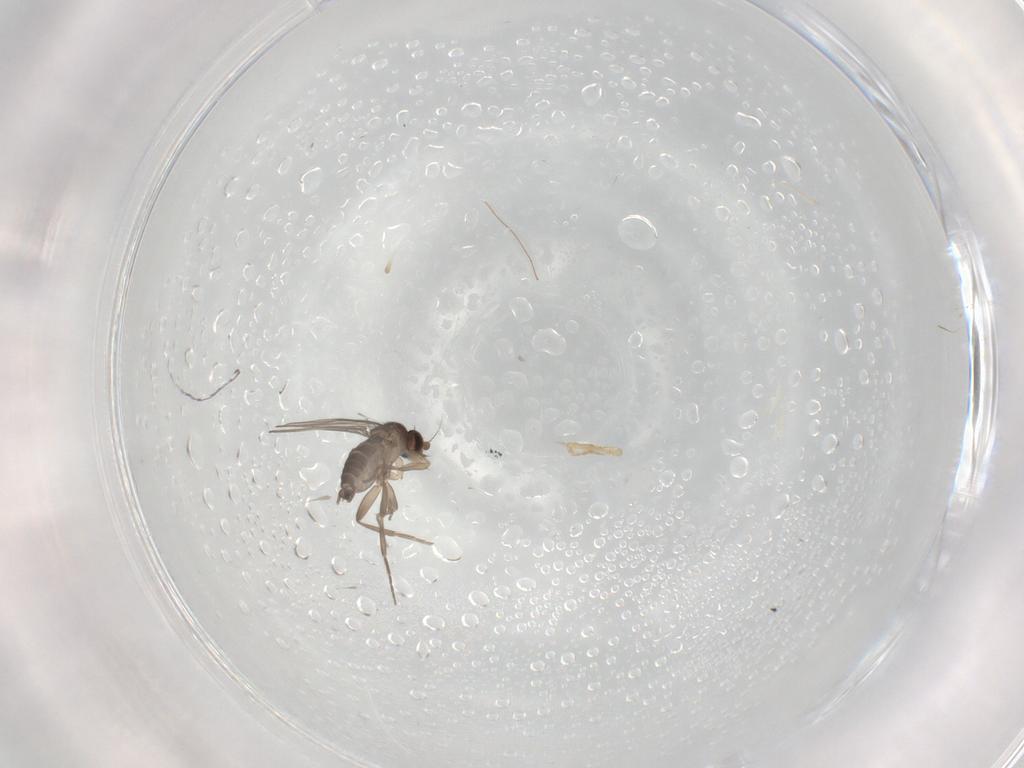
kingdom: Animalia
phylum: Arthropoda
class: Insecta
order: Diptera
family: Phoridae
